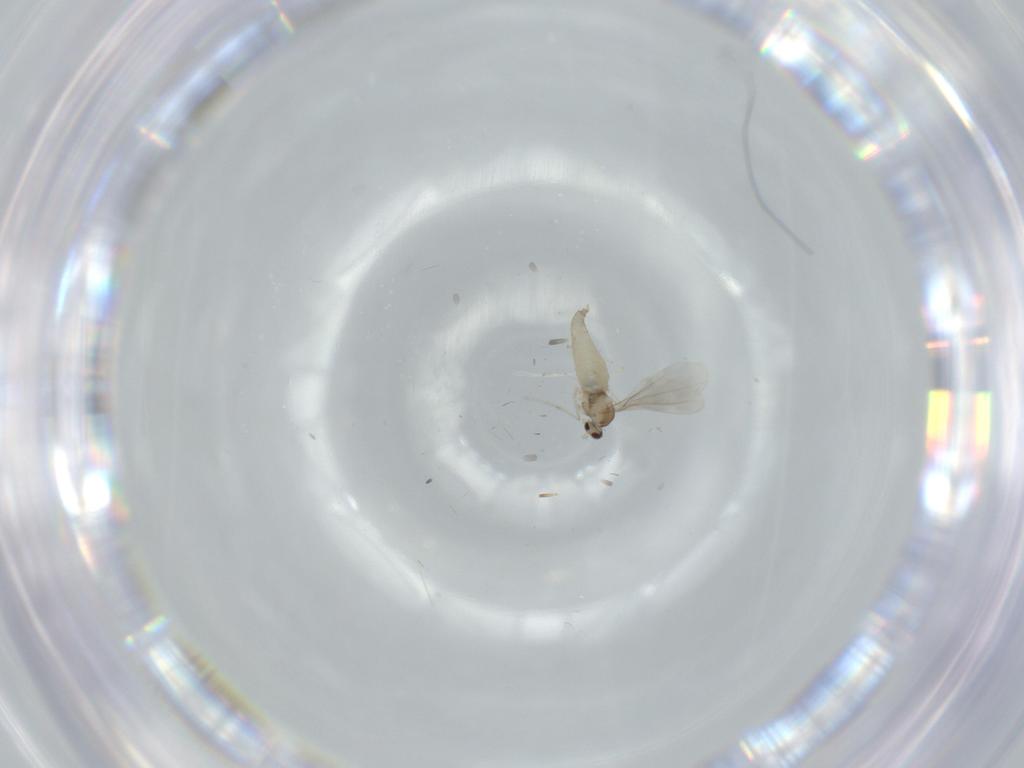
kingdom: Animalia
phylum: Arthropoda
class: Insecta
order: Diptera
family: Cecidomyiidae
